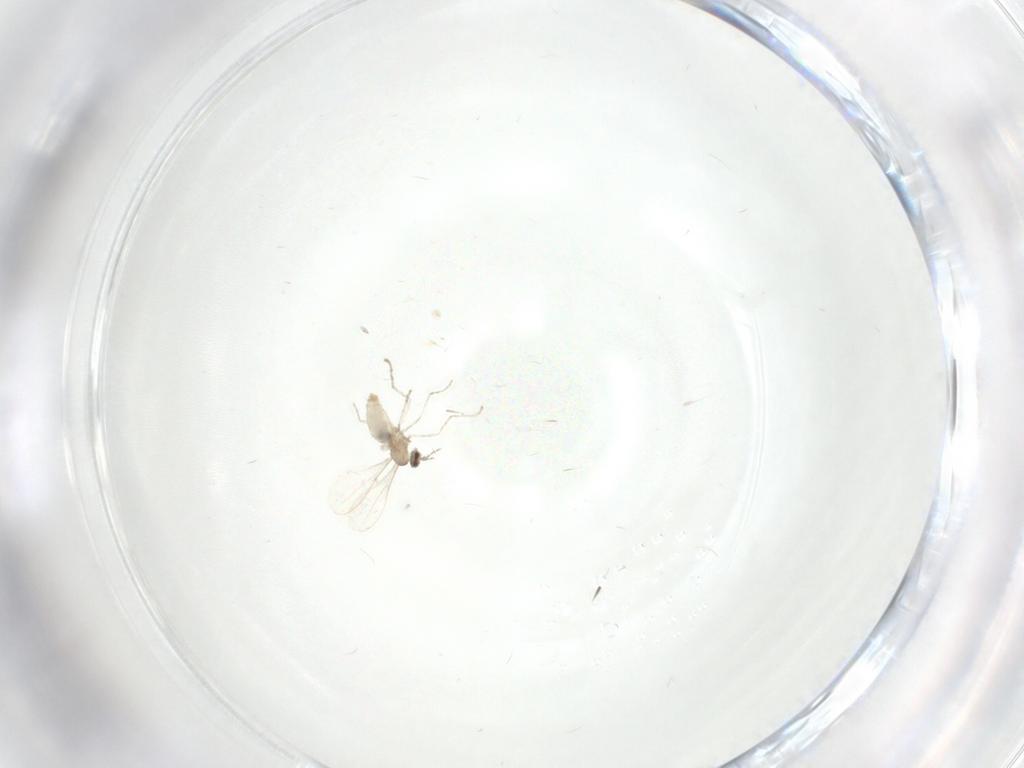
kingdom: Animalia
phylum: Arthropoda
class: Insecta
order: Diptera
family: Cecidomyiidae
